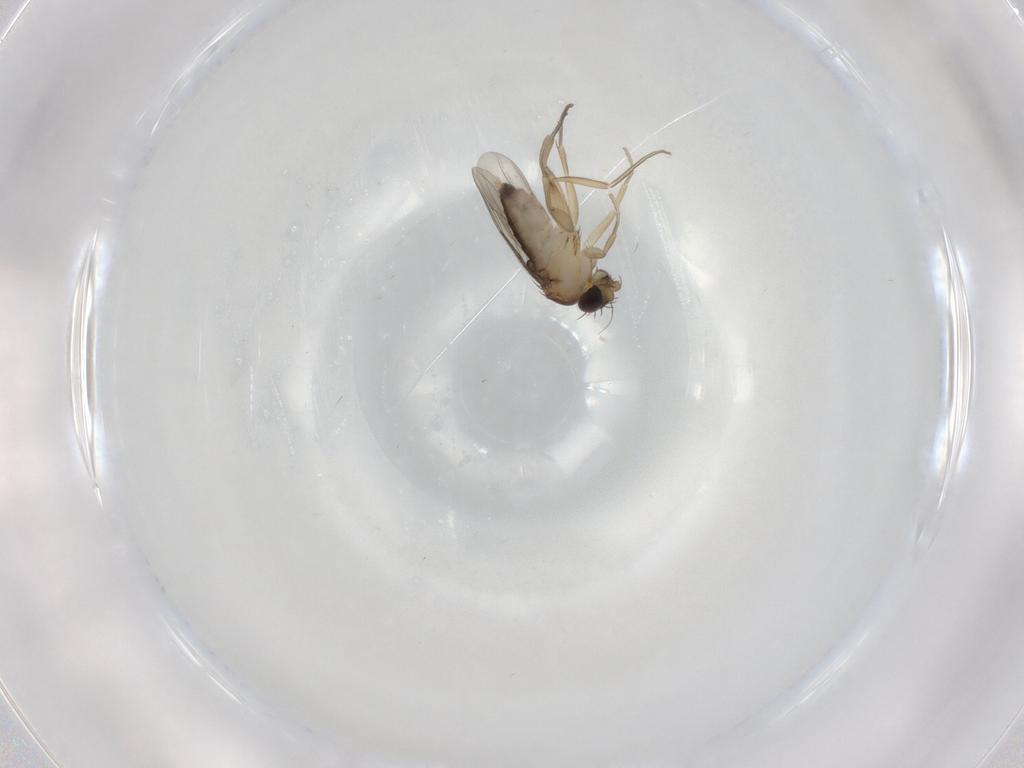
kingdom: Animalia
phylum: Arthropoda
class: Insecta
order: Diptera
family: Phoridae
